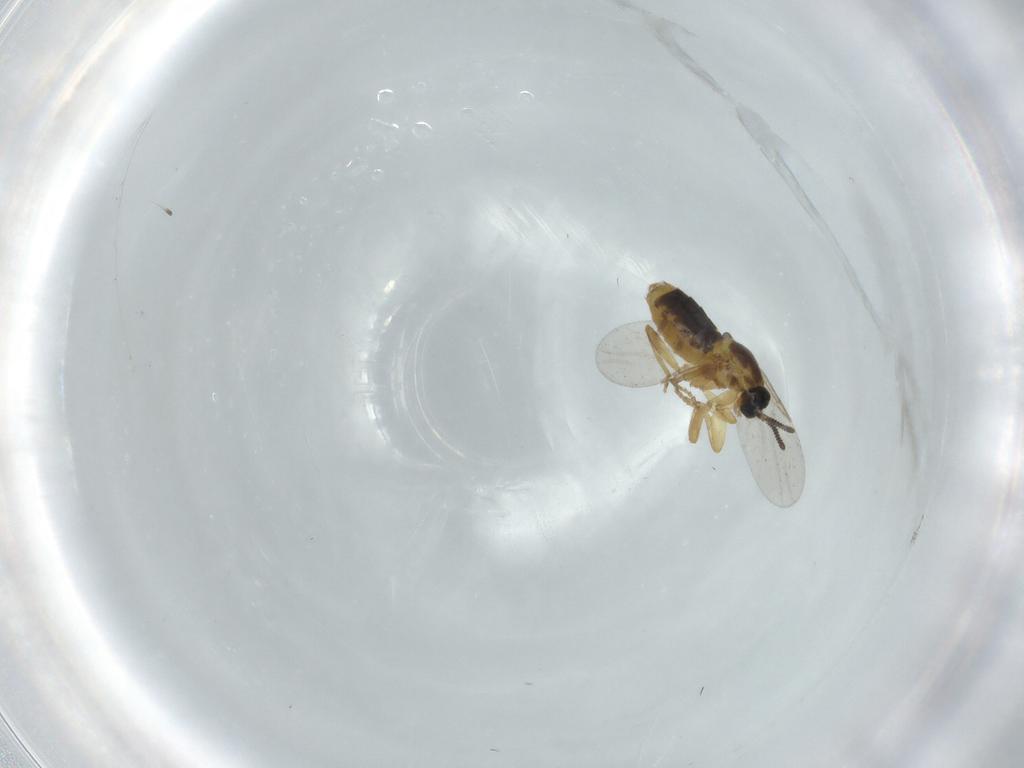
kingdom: Animalia
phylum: Arthropoda
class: Insecta
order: Diptera
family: Scatopsidae
